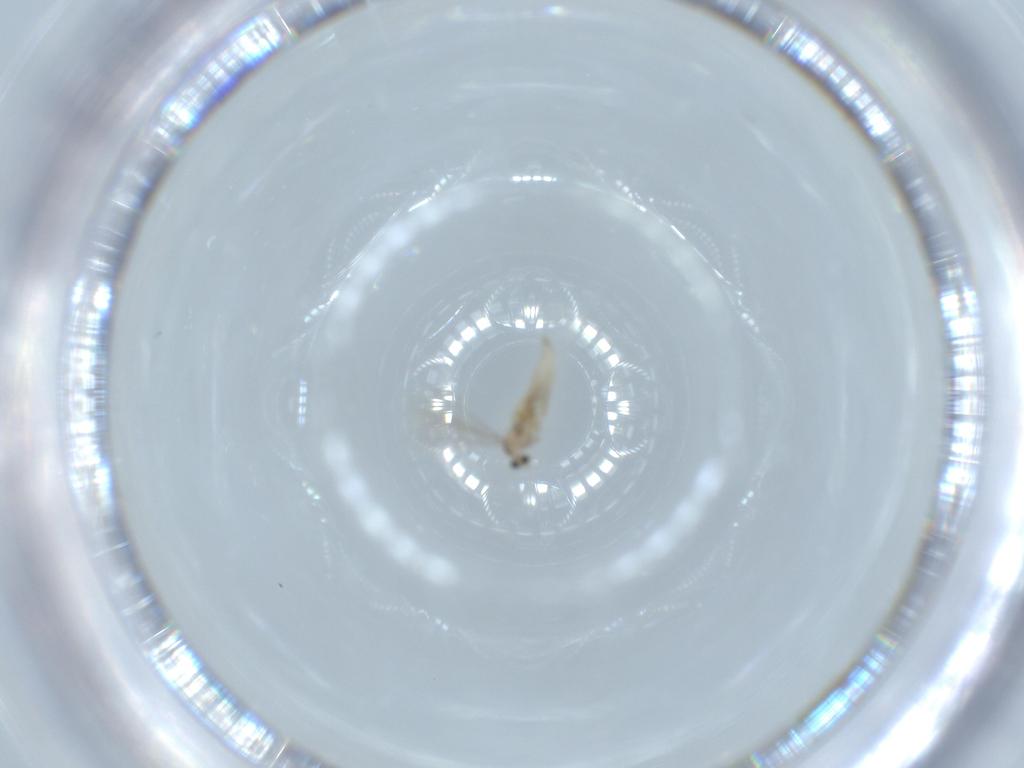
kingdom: Animalia
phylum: Arthropoda
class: Insecta
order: Diptera
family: Cecidomyiidae
